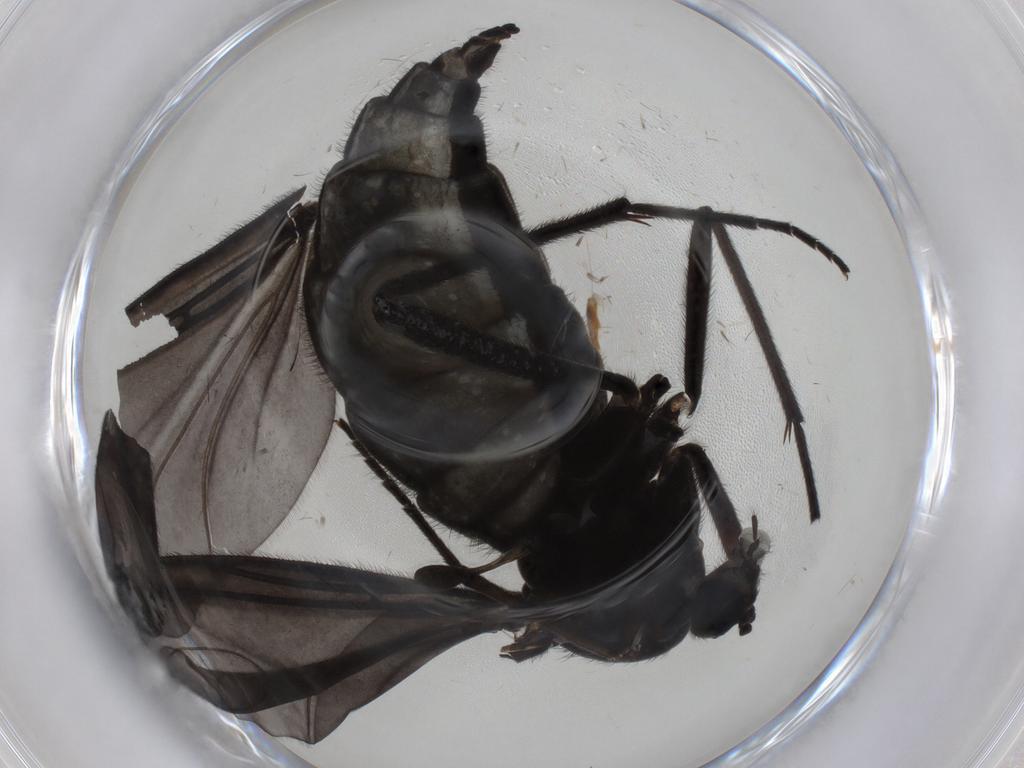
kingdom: Animalia
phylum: Arthropoda
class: Insecta
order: Diptera
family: Sciaridae
